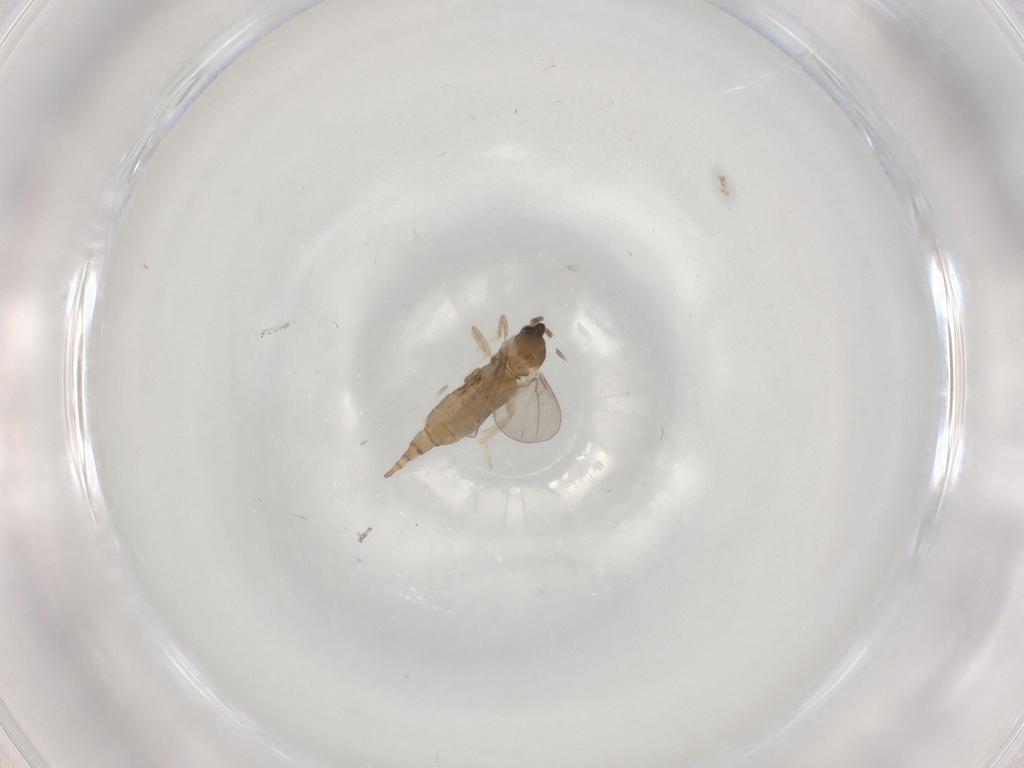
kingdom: Animalia
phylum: Arthropoda
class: Insecta
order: Diptera
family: Cecidomyiidae
